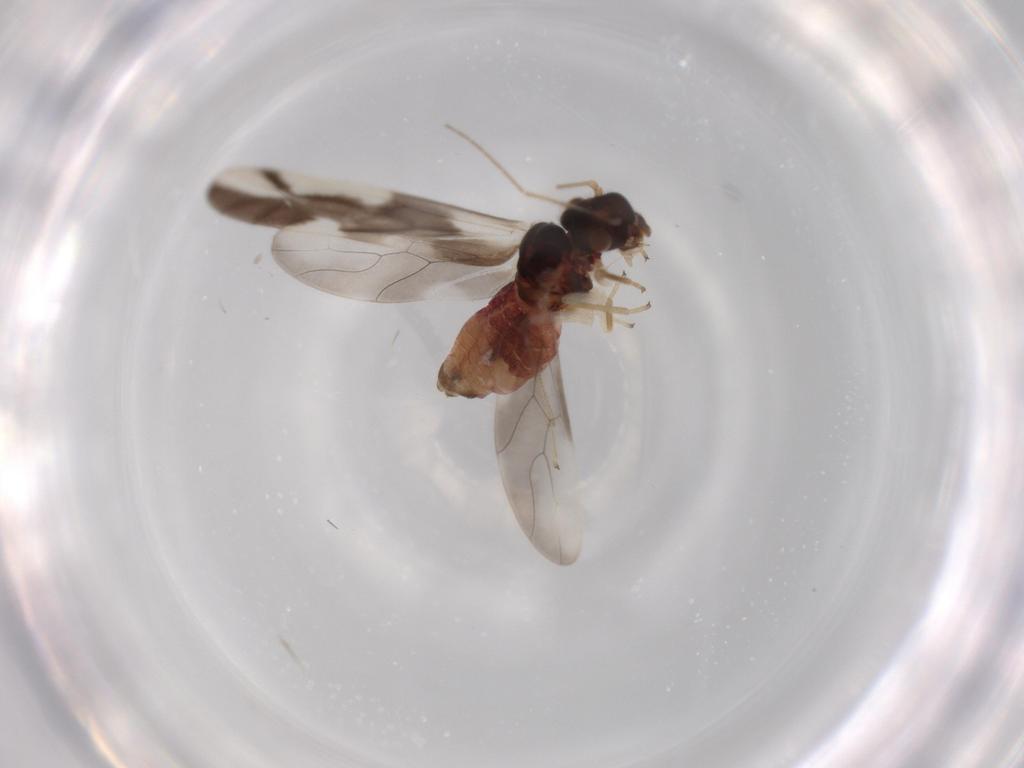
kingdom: Animalia
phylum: Arthropoda
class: Insecta
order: Psocodea
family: Caeciliusidae
